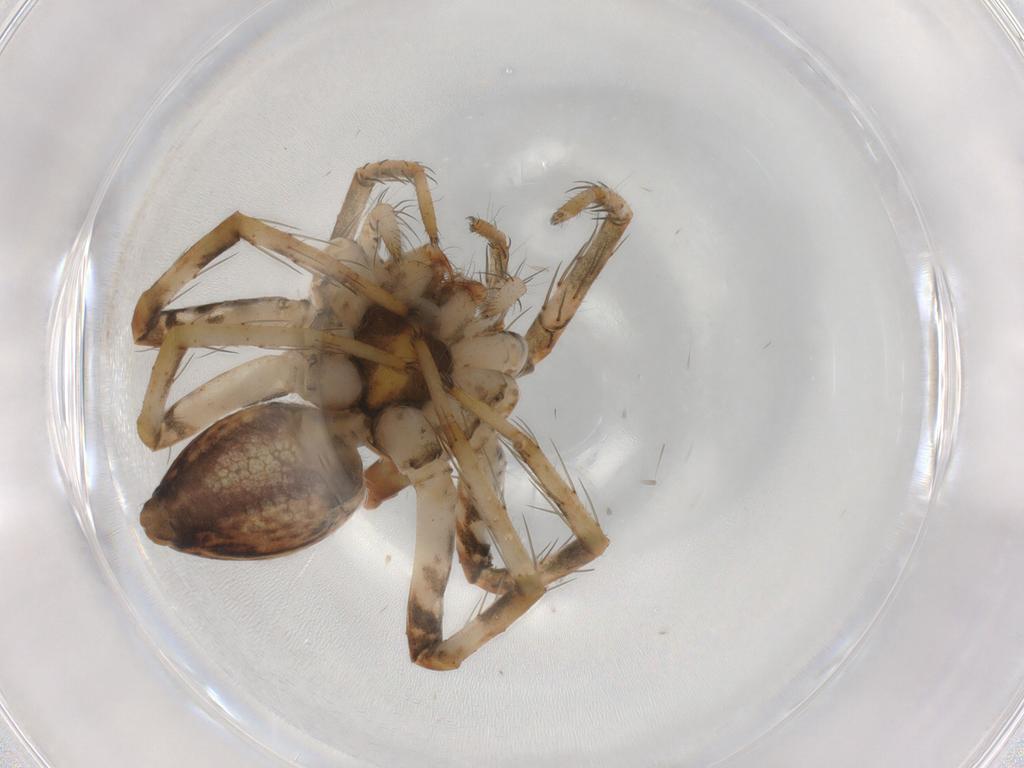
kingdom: Animalia
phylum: Arthropoda
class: Arachnida
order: Araneae
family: Pisauridae
